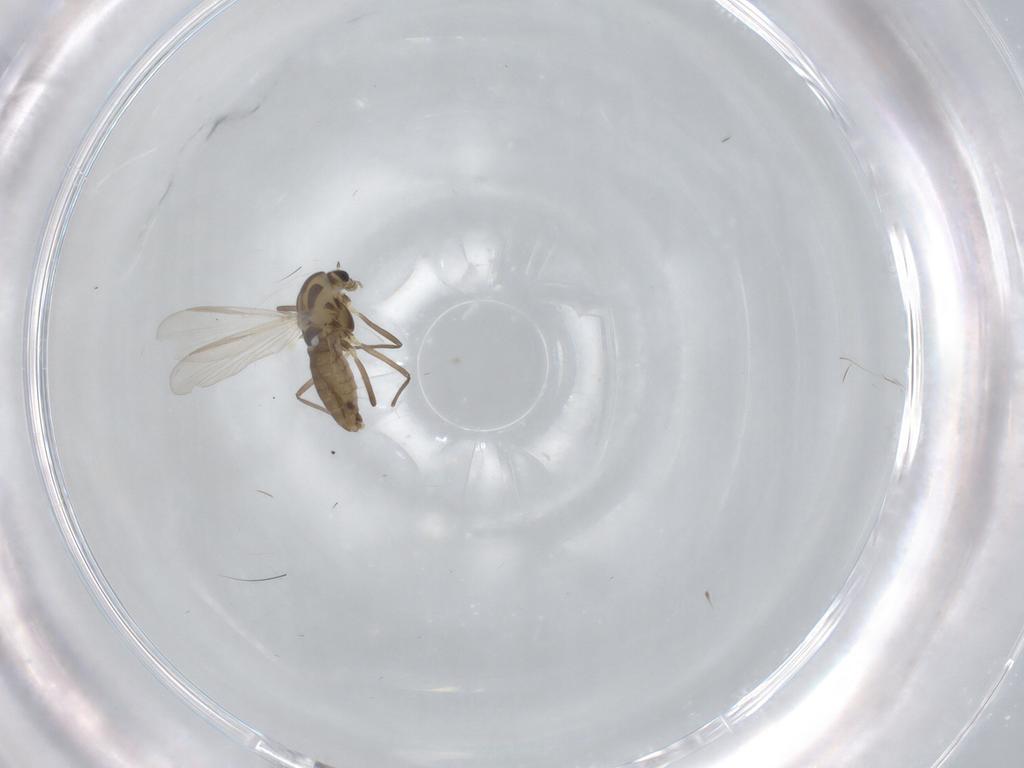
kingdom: Animalia
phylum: Arthropoda
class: Insecta
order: Diptera
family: Chironomidae
